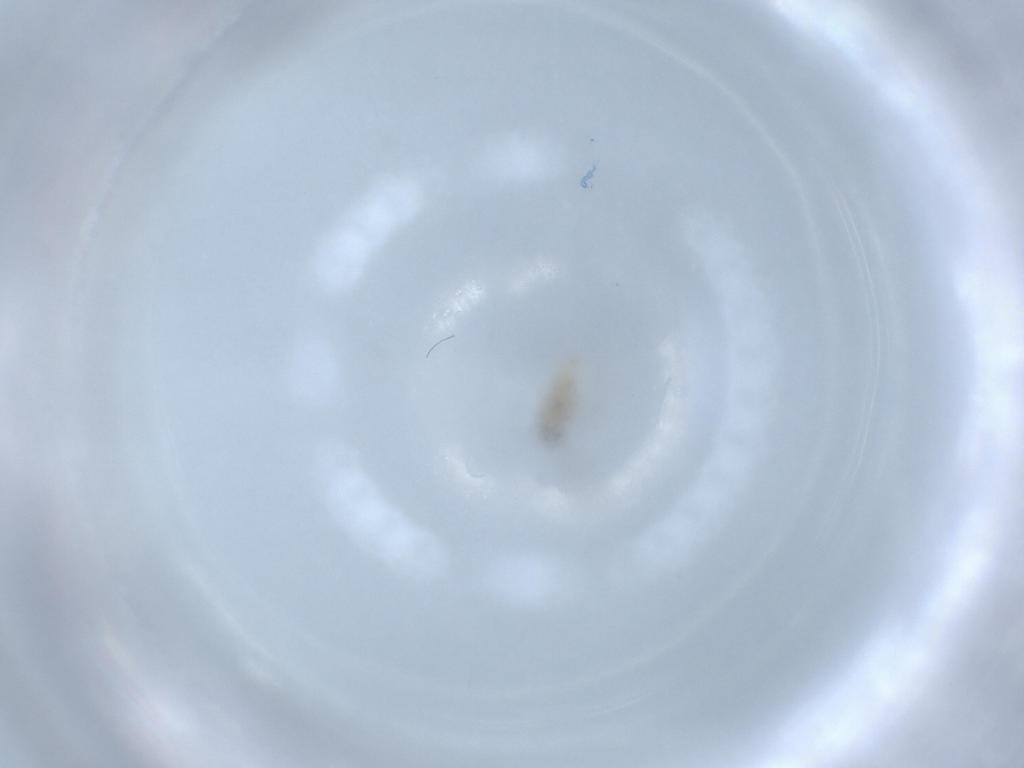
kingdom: Animalia
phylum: Arthropoda
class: Insecta
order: Diptera
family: Cecidomyiidae
